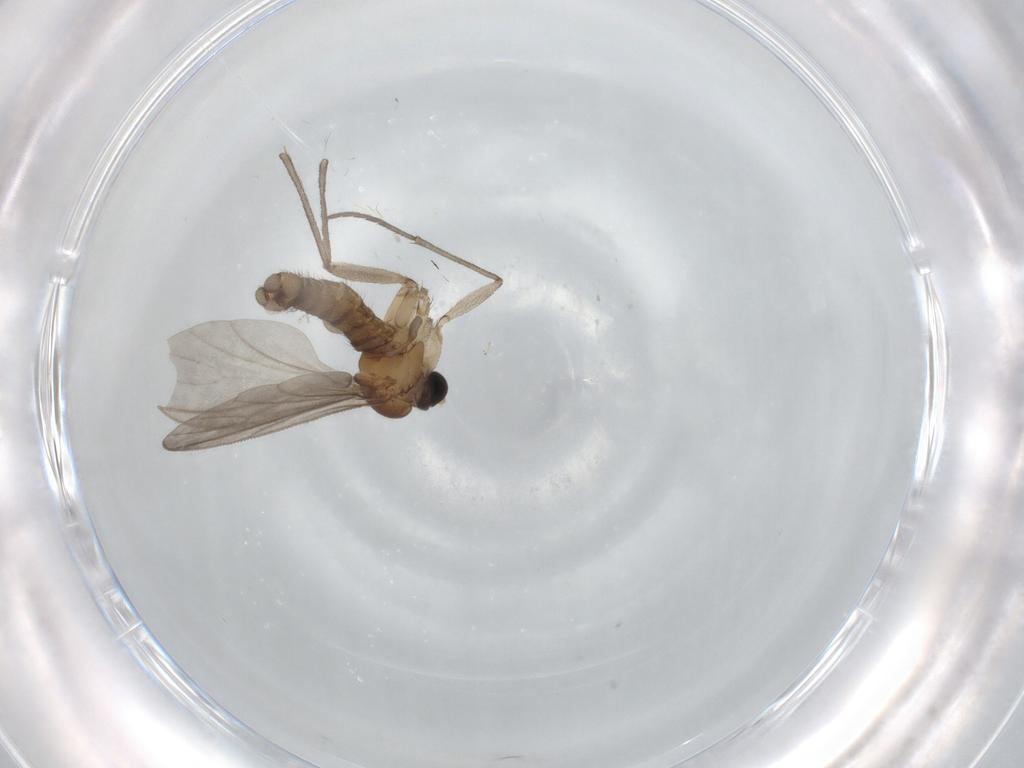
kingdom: Animalia
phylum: Arthropoda
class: Insecta
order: Diptera
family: Sciaridae
